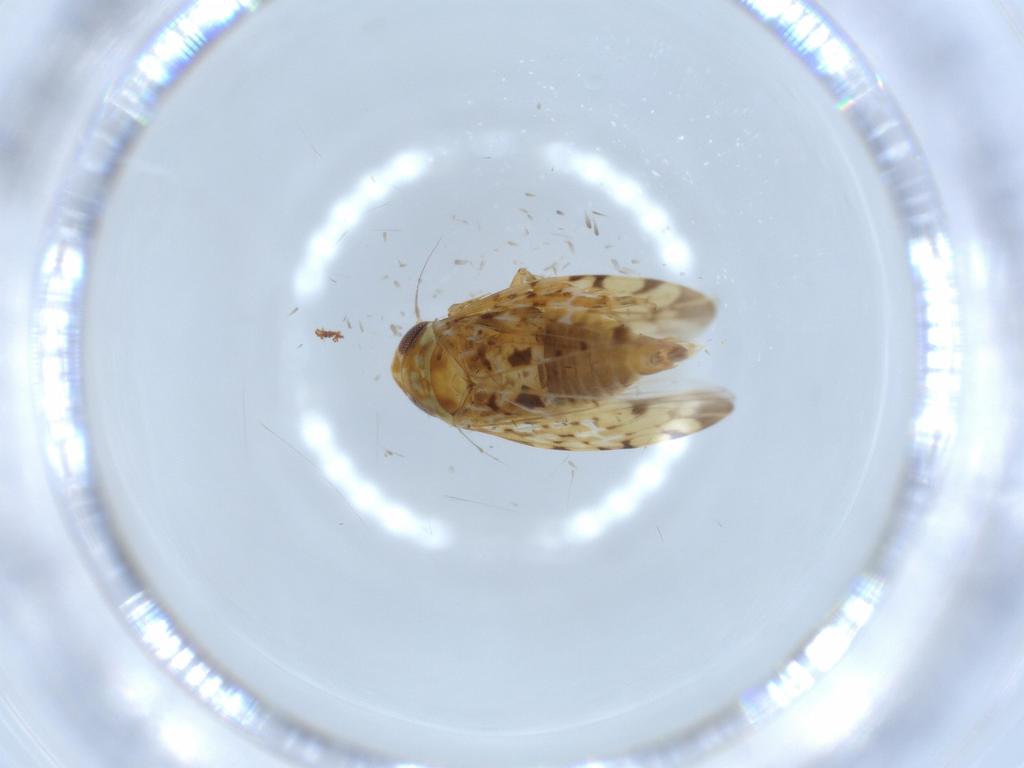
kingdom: Animalia
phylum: Arthropoda
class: Insecta
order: Hemiptera
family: Cicadellidae
